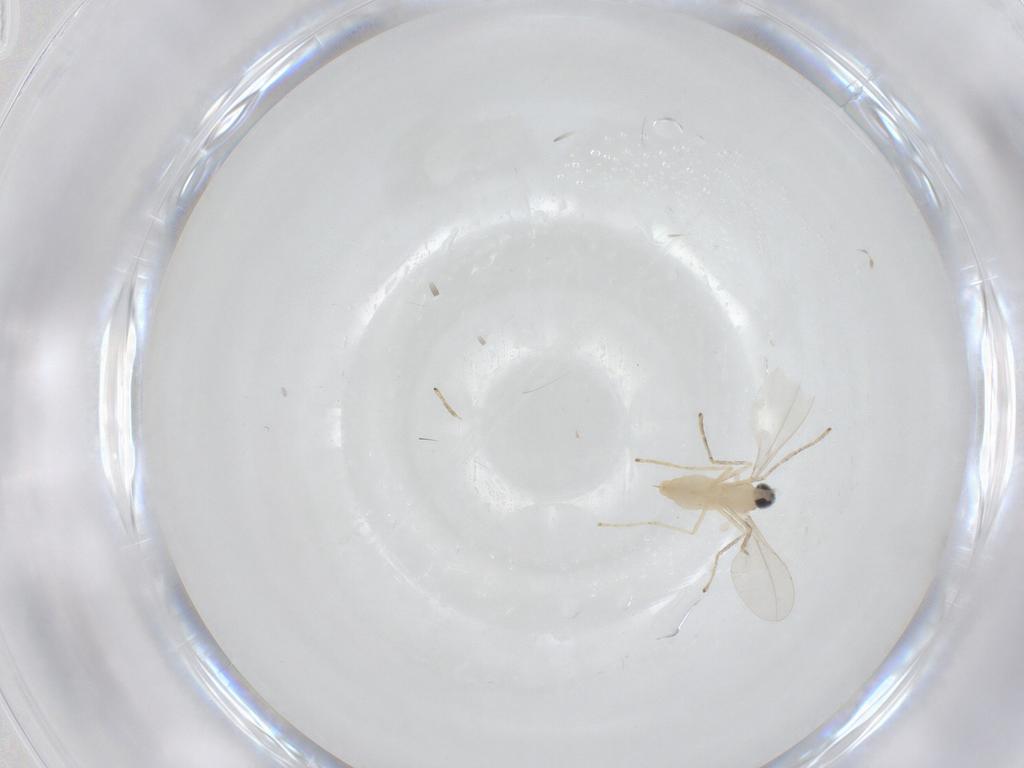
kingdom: Animalia
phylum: Arthropoda
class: Insecta
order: Diptera
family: Cecidomyiidae
